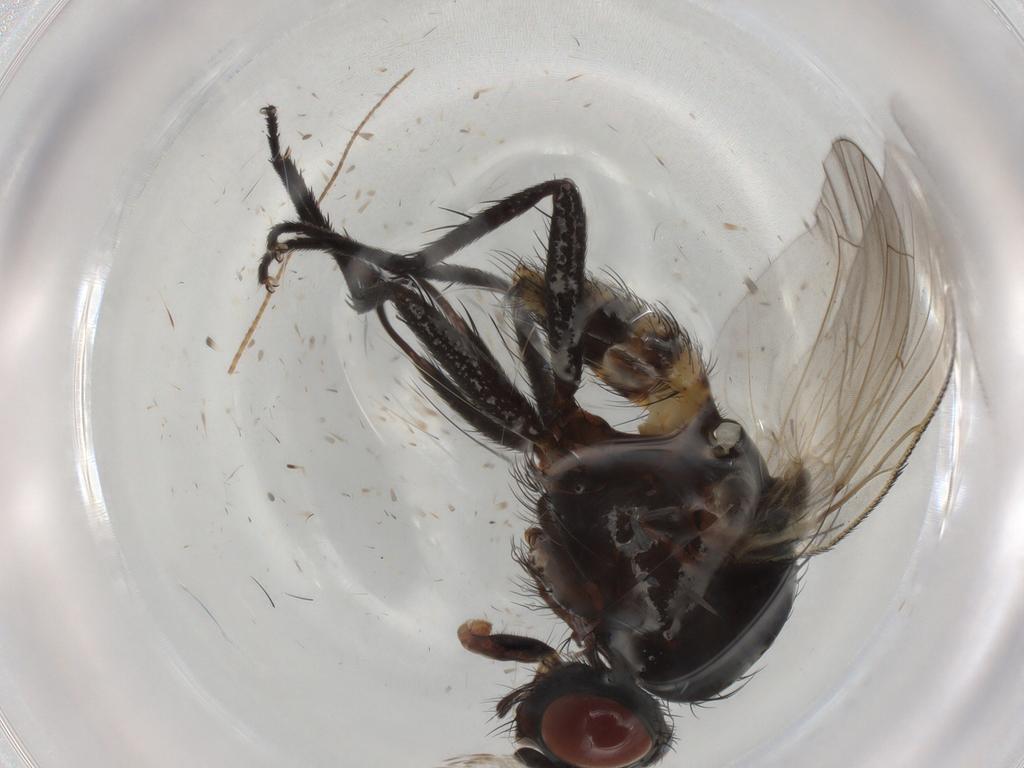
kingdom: Animalia
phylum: Arthropoda
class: Insecta
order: Diptera
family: Anthomyiidae
